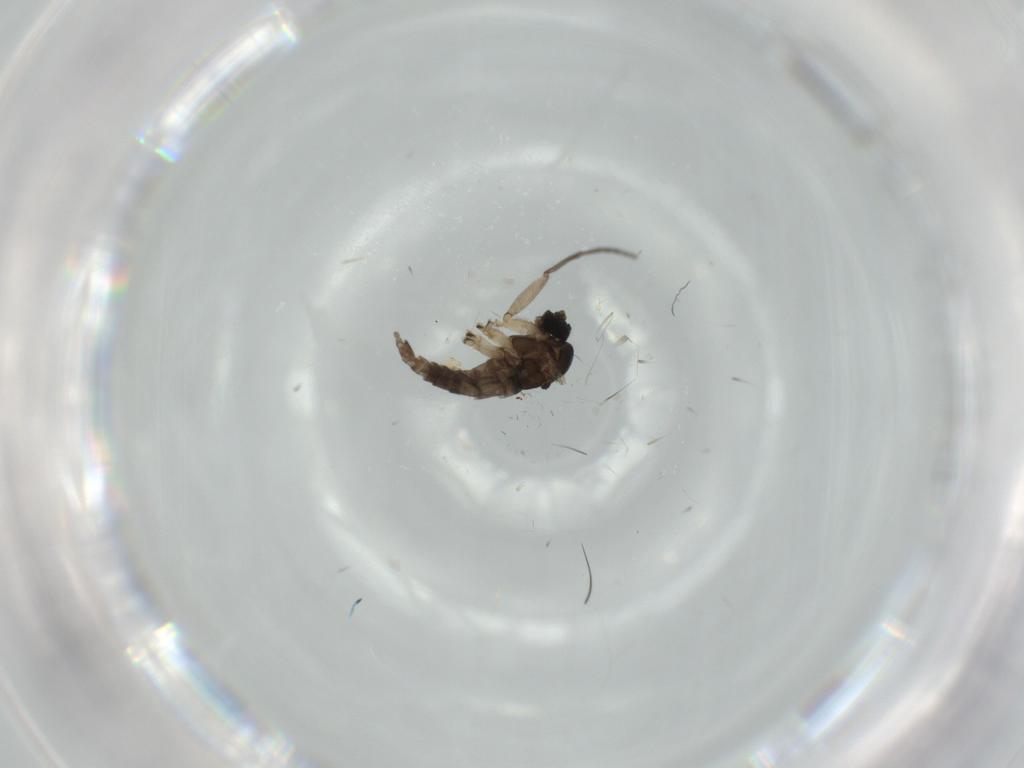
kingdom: Animalia
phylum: Arthropoda
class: Insecta
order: Diptera
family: Sciaridae
